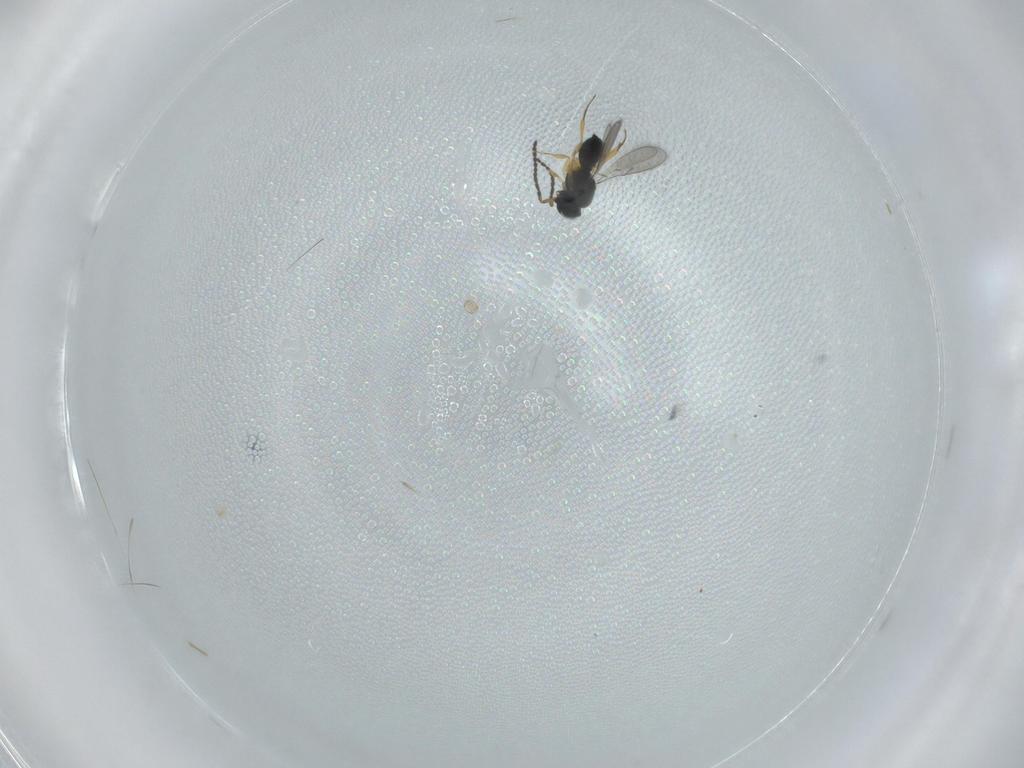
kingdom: Animalia
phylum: Arthropoda
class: Insecta
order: Hymenoptera
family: Scelionidae
